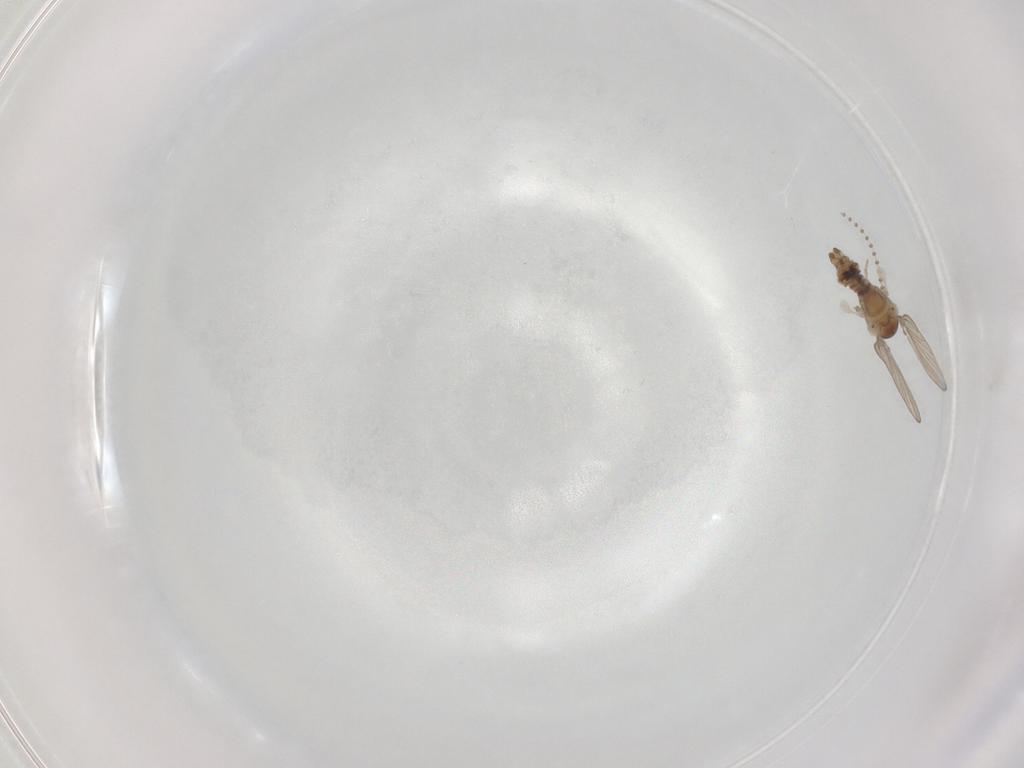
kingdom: Animalia
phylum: Arthropoda
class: Insecta
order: Diptera
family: Psychodidae
